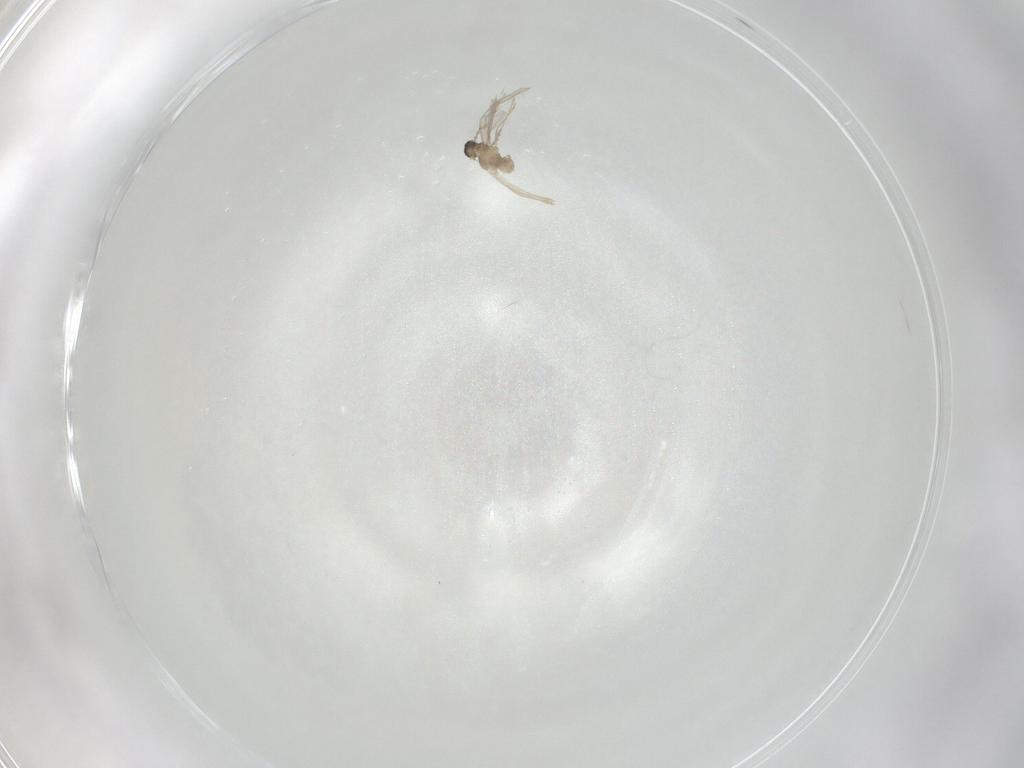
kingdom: Animalia
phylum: Arthropoda
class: Insecta
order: Diptera
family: Cecidomyiidae
